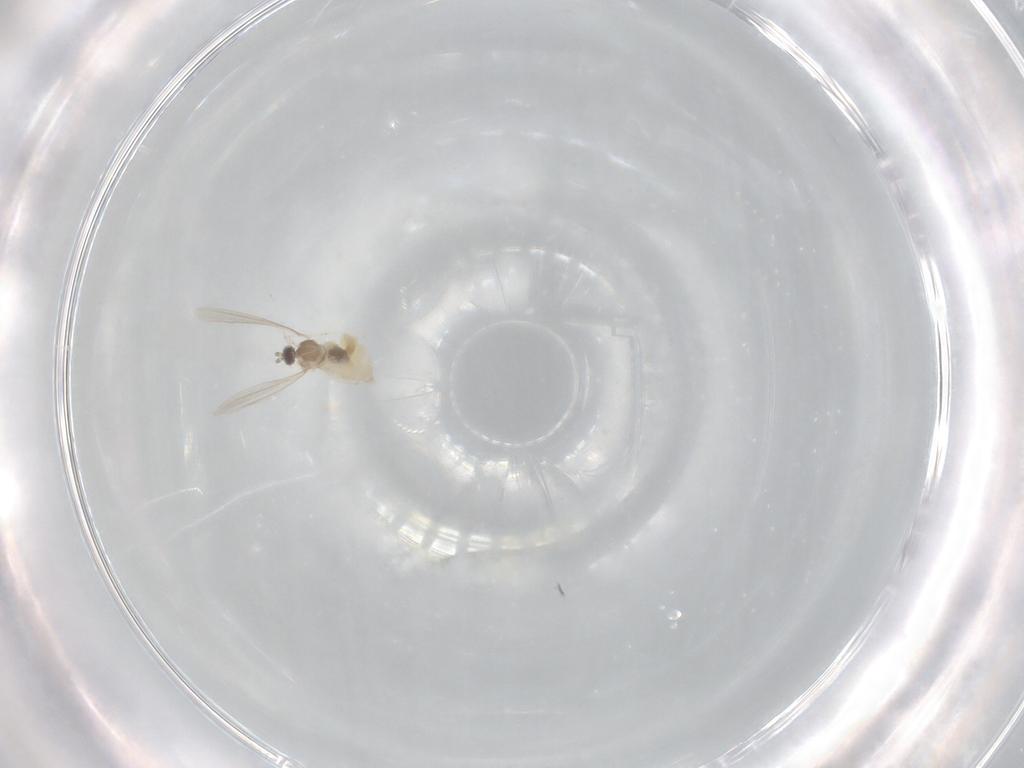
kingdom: Animalia
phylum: Arthropoda
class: Insecta
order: Diptera
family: Cecidomyiidae
